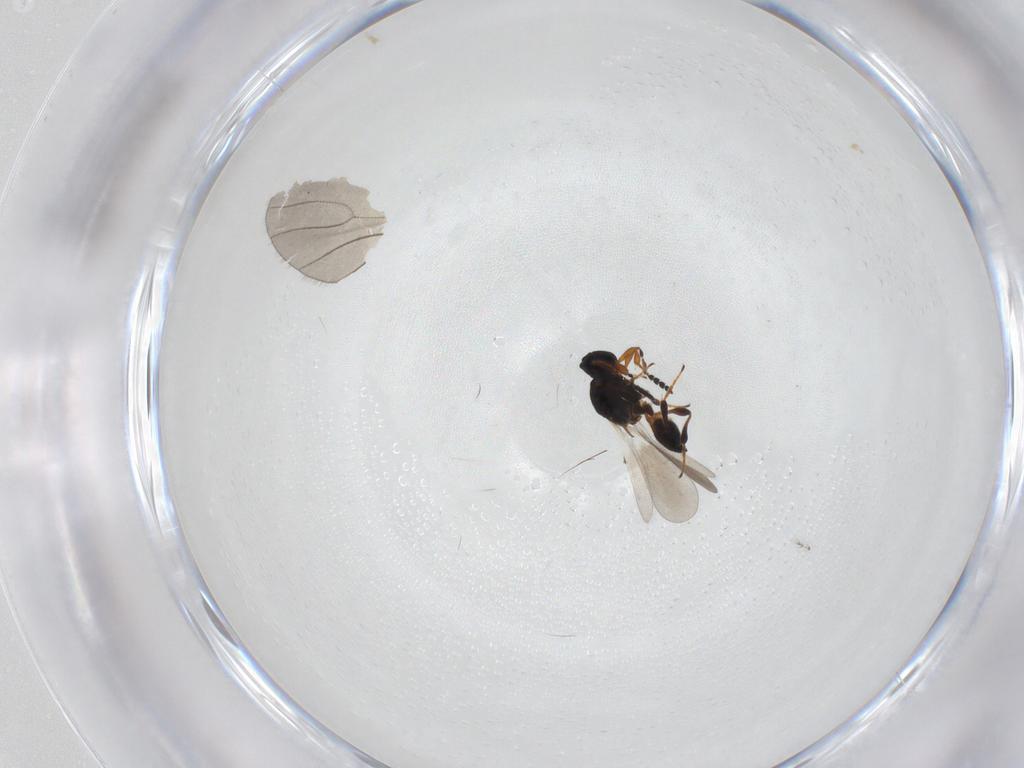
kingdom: Animalia
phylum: Arthropoda
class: Insecta
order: Hymenoptera
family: Platygastridae
